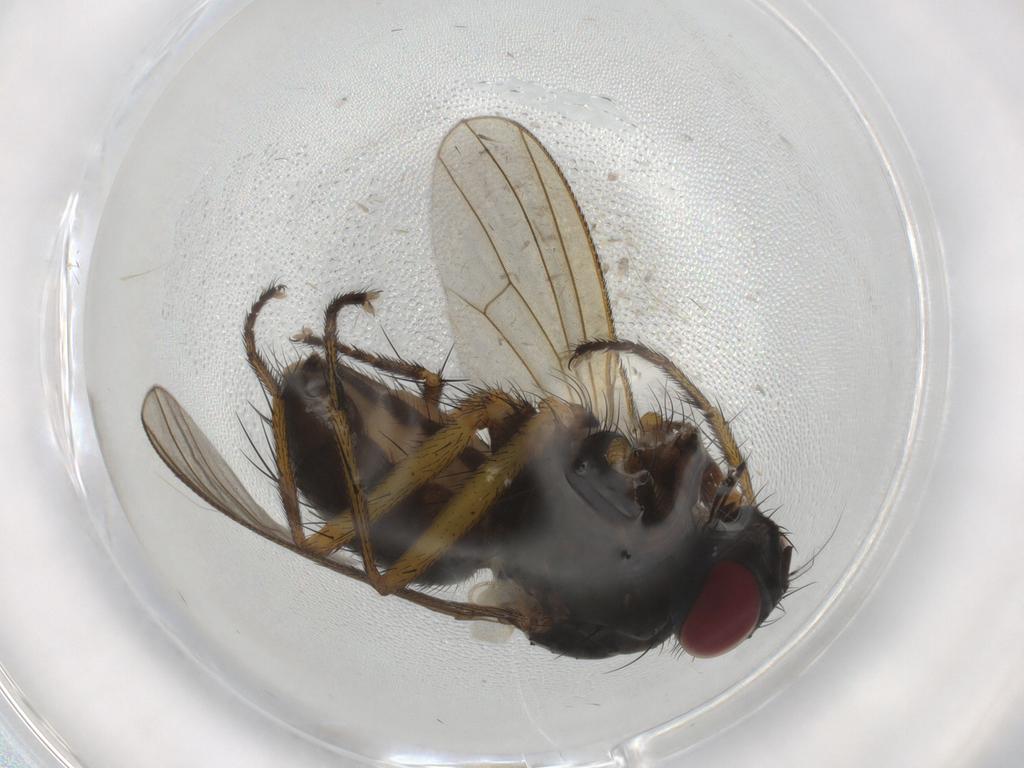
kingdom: Animalia
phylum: Arthropoda
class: Insecta
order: Diptera
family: Muscidae
